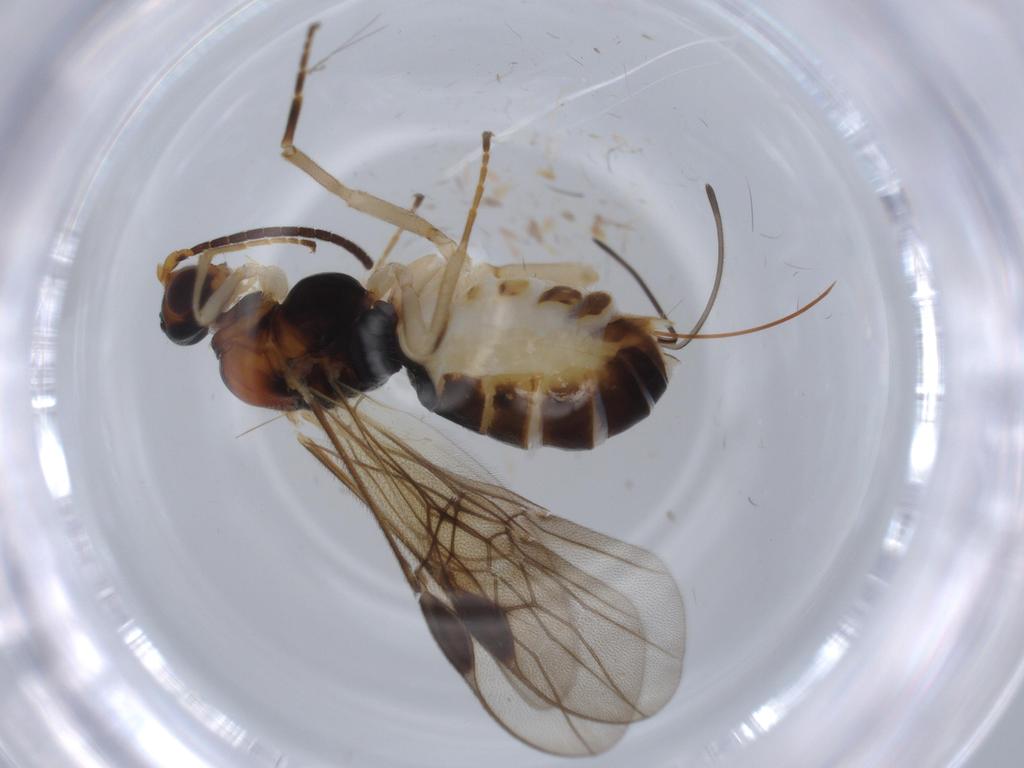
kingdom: Animalia
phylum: Arthropoda
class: Insecta
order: Hymenoptera
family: Braconidae
